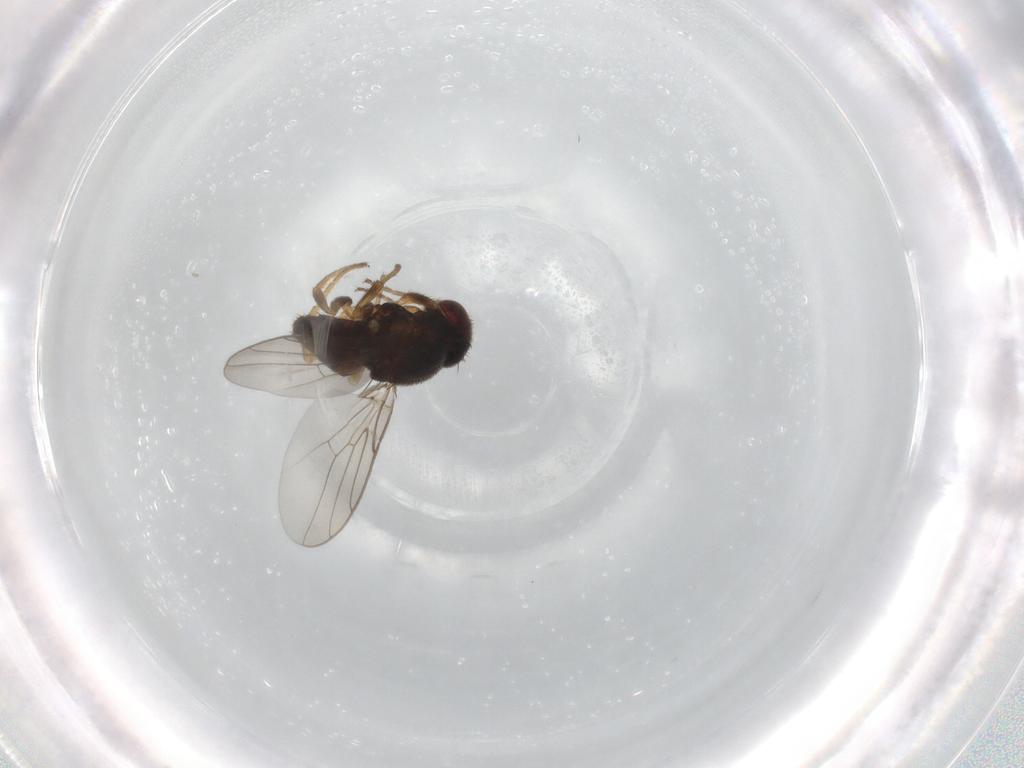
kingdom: Animalia
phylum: Arthropoda
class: Insecta
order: Diptera
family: Chloropidae
